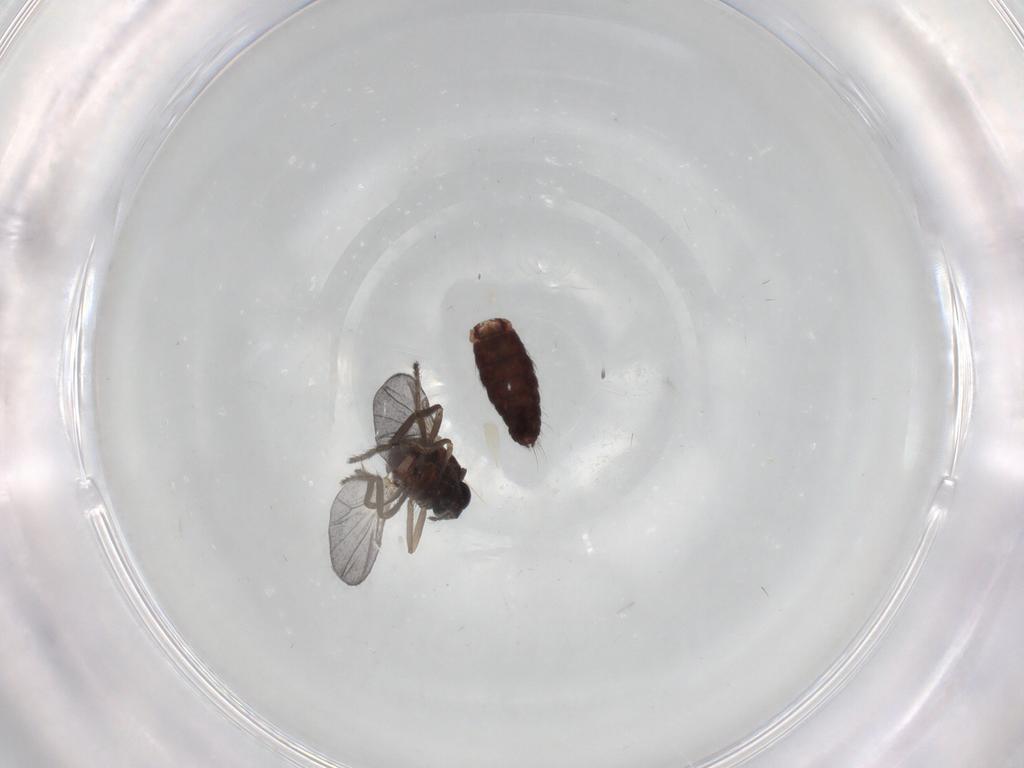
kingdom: Animalia
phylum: Arthropoda
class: Insecta
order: Diptera
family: Ceratopogonidae
